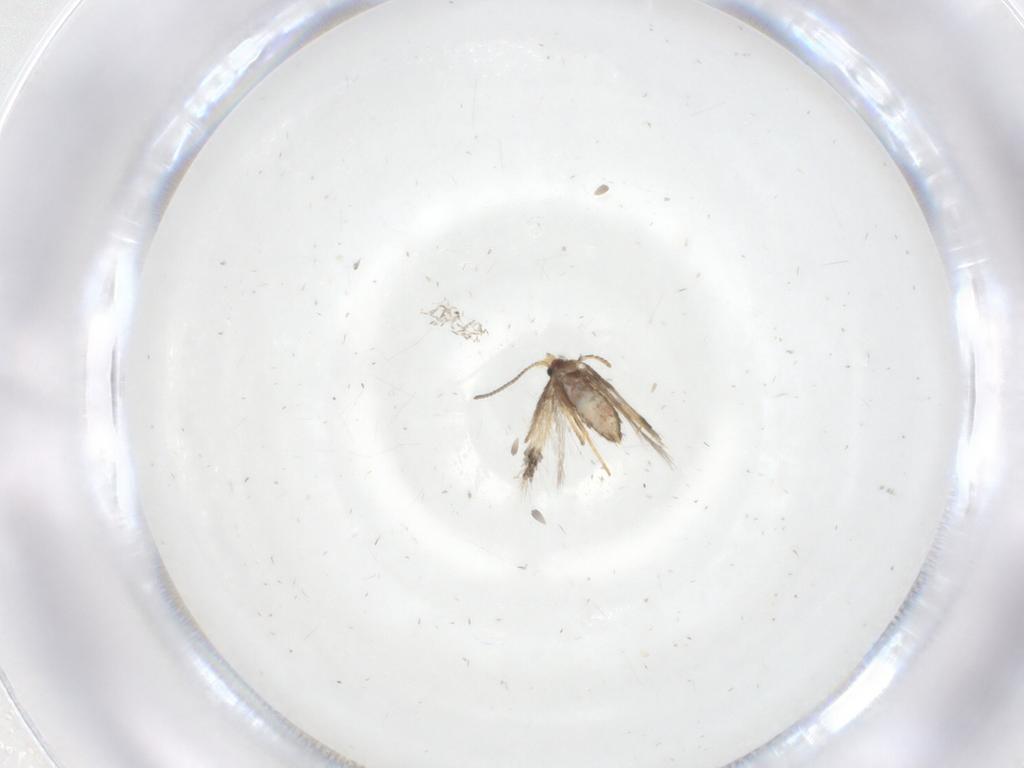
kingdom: Animalia
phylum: Arthropoda
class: Insecta
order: Lepidoptera
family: Nepticulidae
